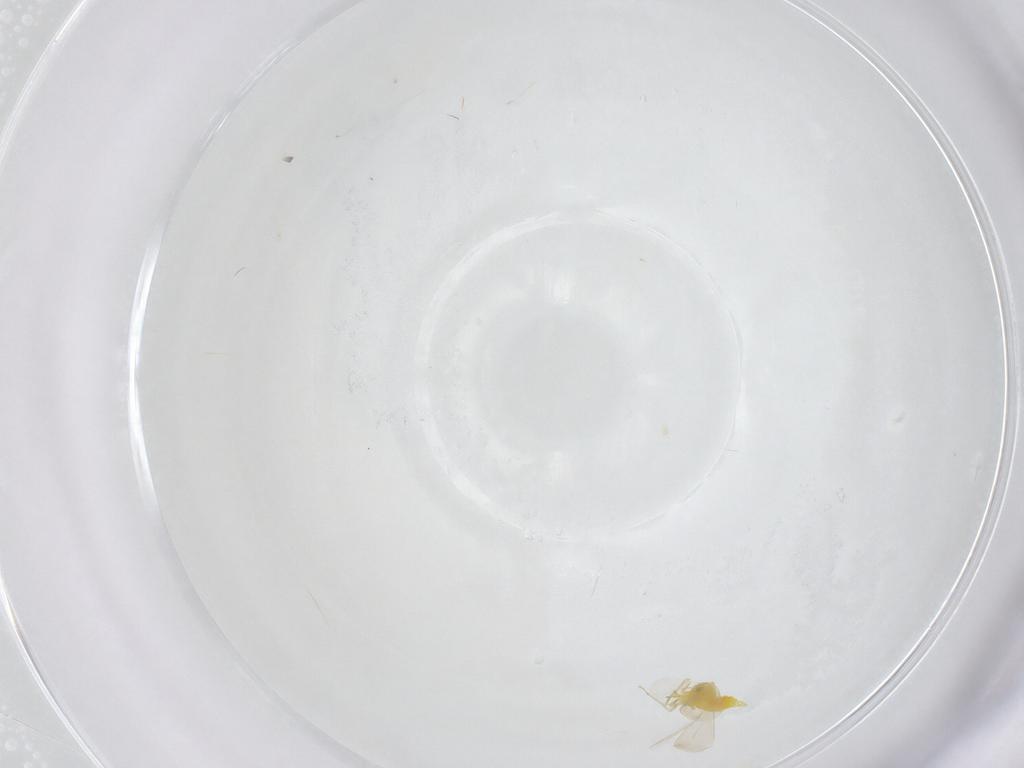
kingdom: Animalia
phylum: Arthropoda
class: Insecta
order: Hemiptera
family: Aleyrodidae
